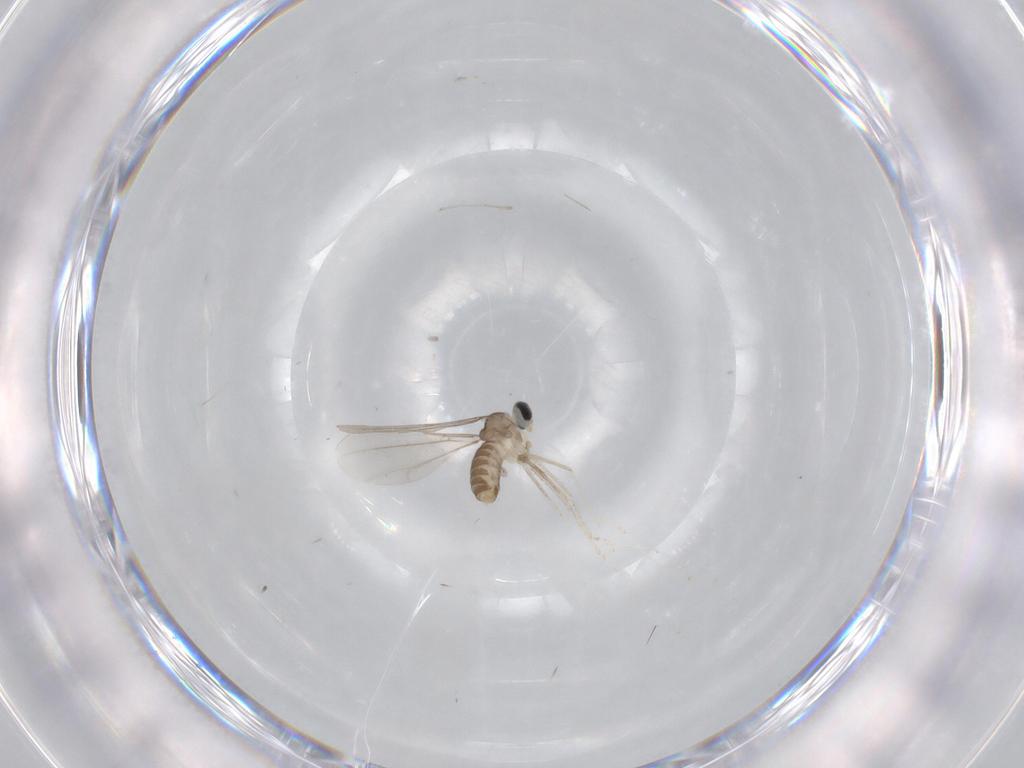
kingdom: Animalia
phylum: Arthropoda
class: Insecta
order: Diptera
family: Cecidomyiidae
